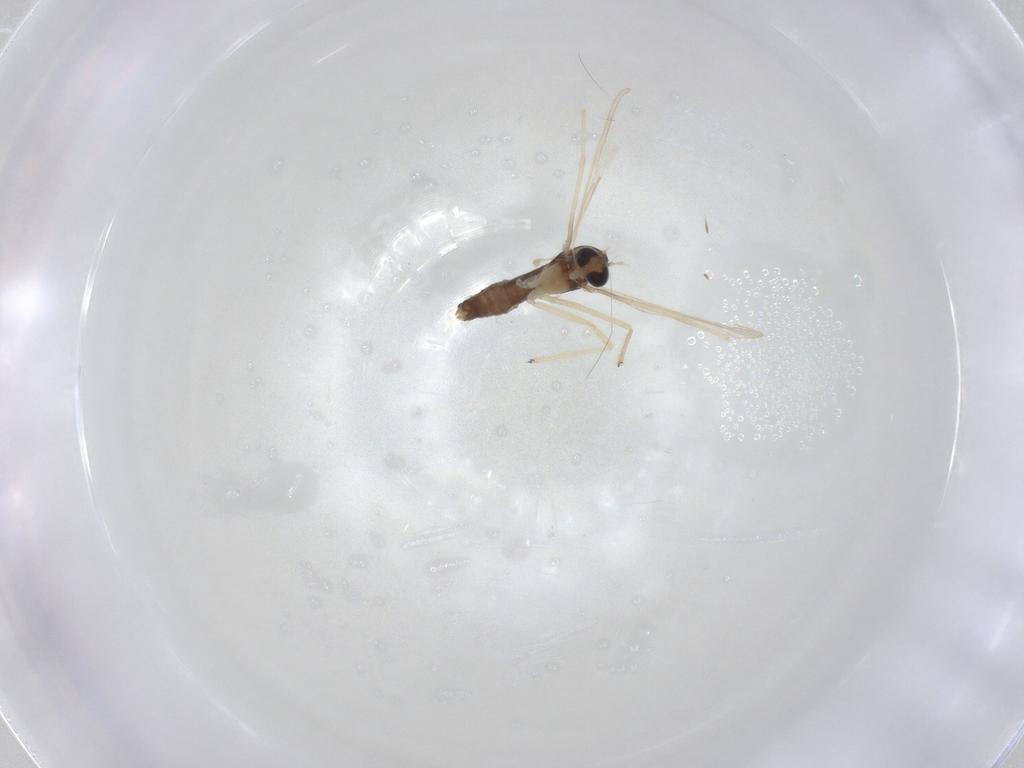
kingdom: Animalia
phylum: Arthropoda
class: Insecta
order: Diptera
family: Chironomidae
